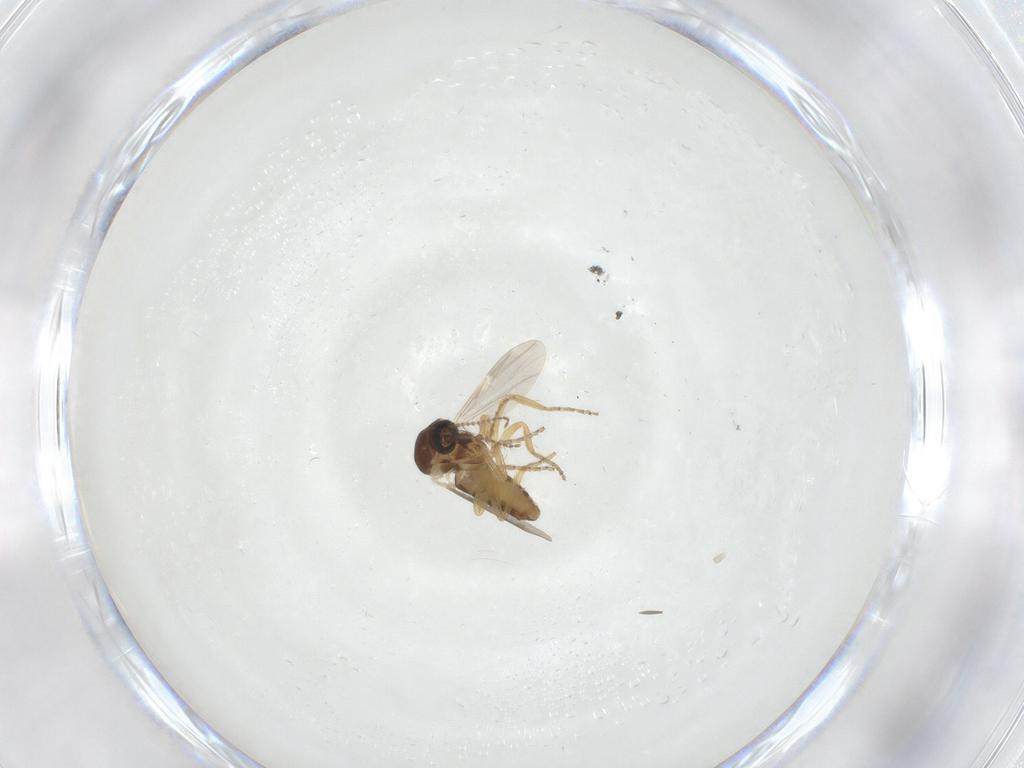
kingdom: Animalia
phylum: Arthropoda
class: Insecta
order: Diptera
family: Ceratopogonidae
